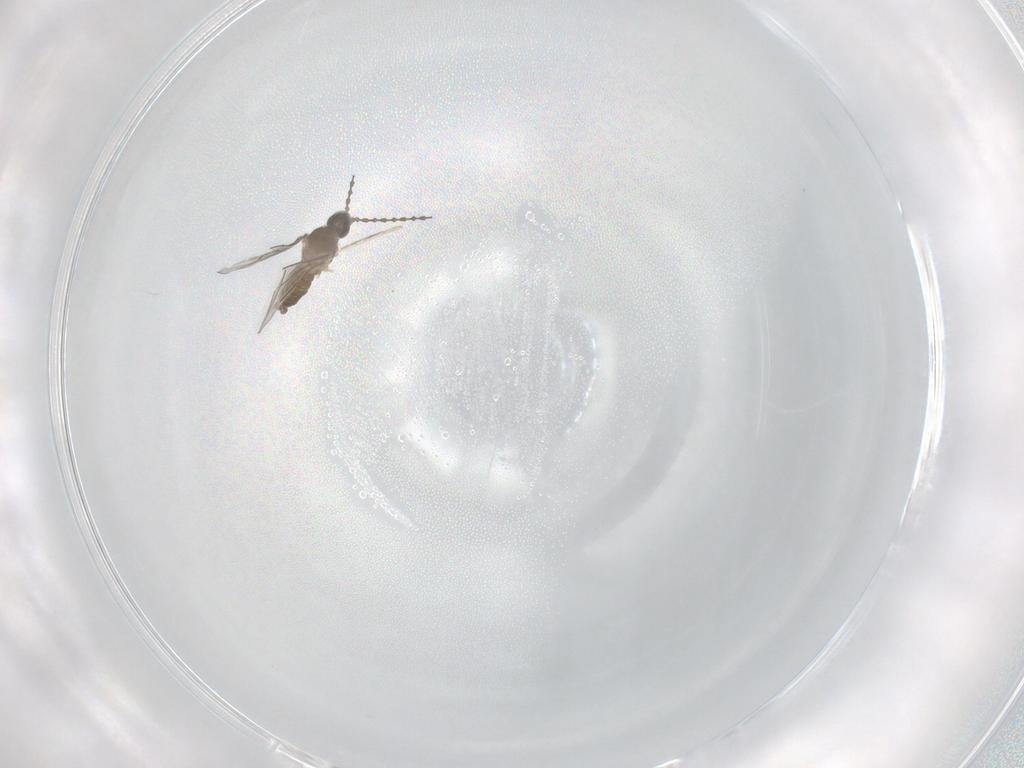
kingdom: Animalia
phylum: Arthropoda
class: Insecta
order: Diptera
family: Cecidomyiidae
